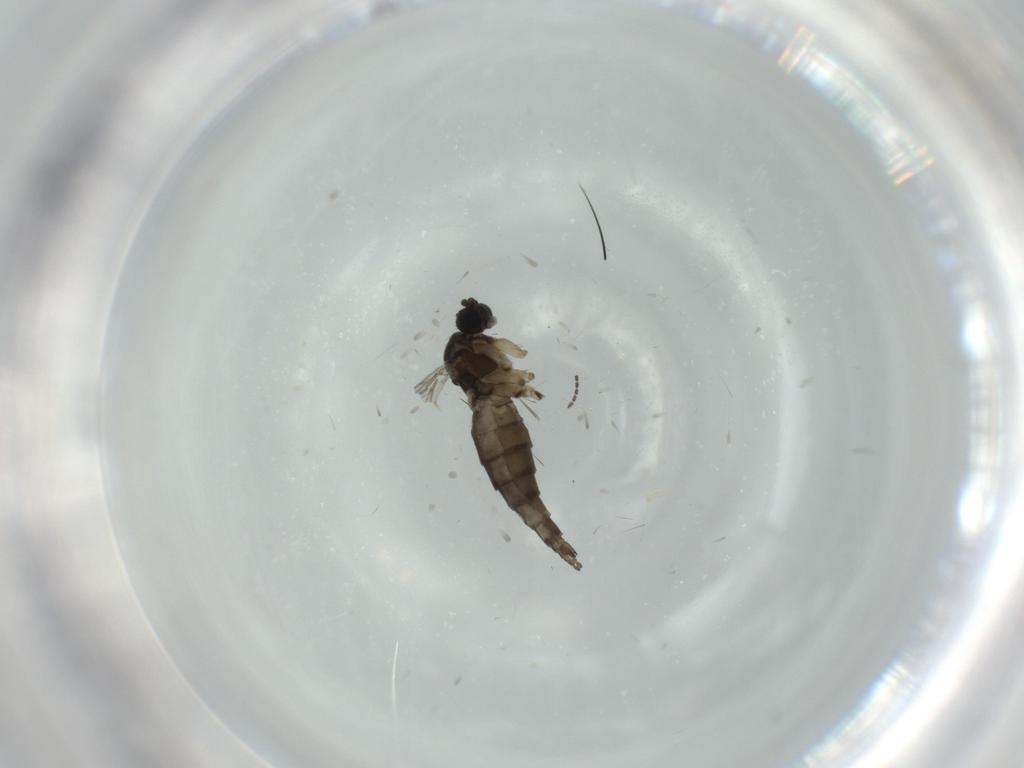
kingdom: Animalia
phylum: Arthropoda
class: Insecta
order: Diptera
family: Sciaridae
